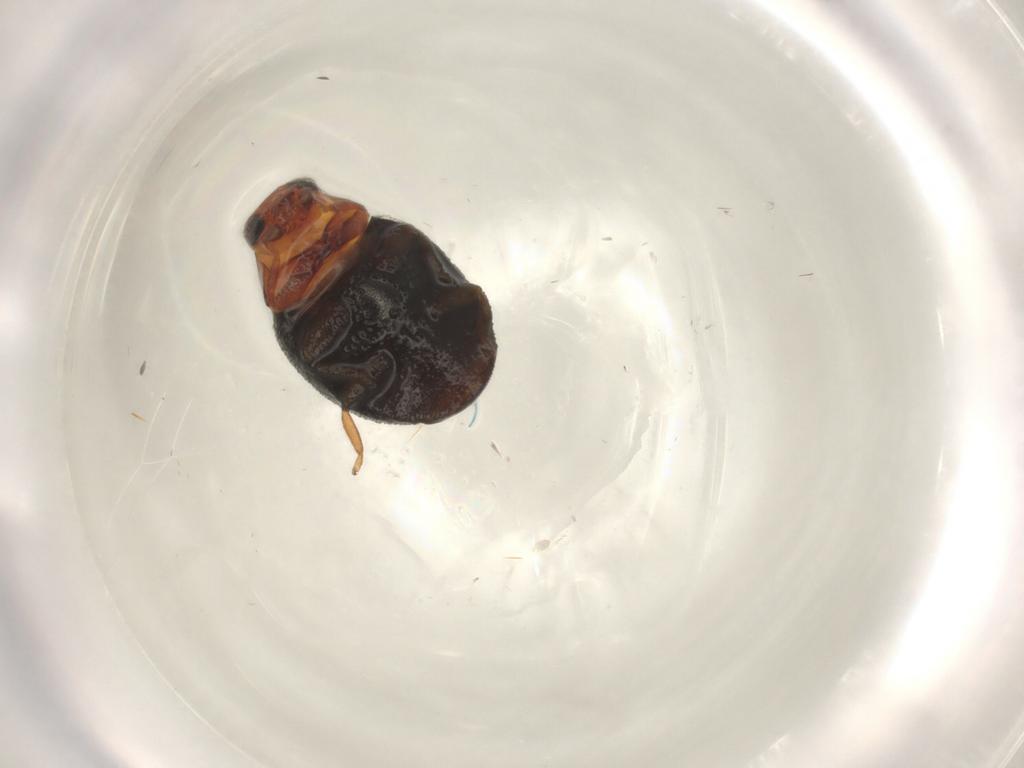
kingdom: Animalia
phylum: Arthropoda
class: Insecta
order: Coleoptera
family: Coccinellidae
